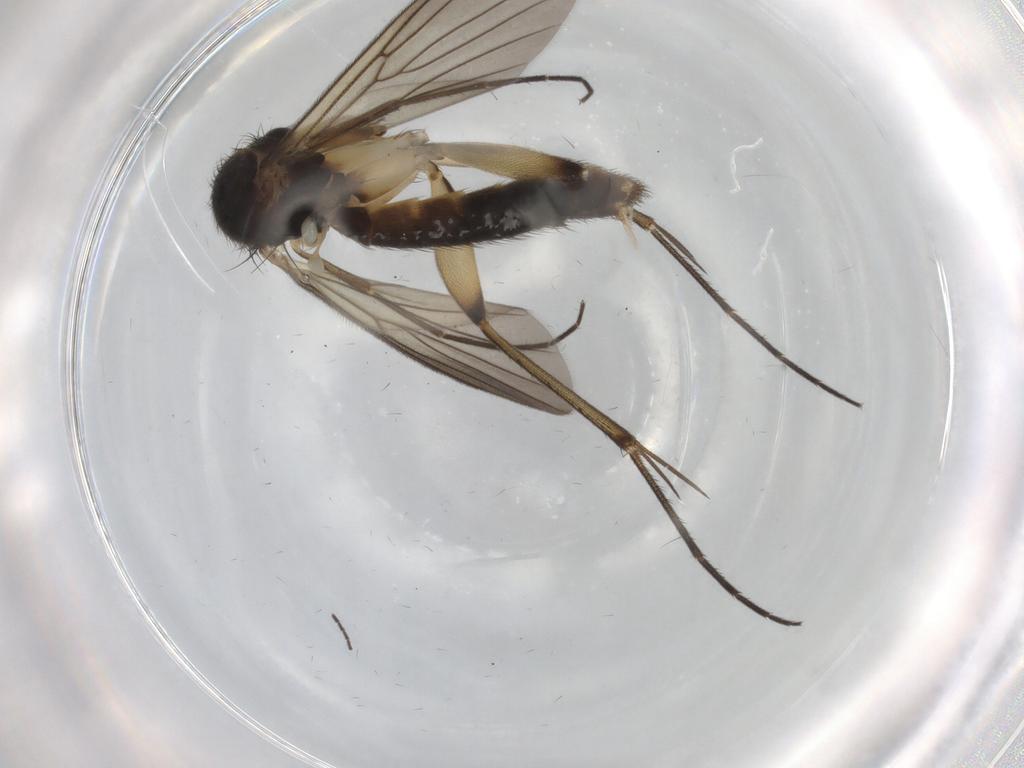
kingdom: Animalia
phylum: Arthropoda
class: Insecta
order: Diptera
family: Mycetophilidae
